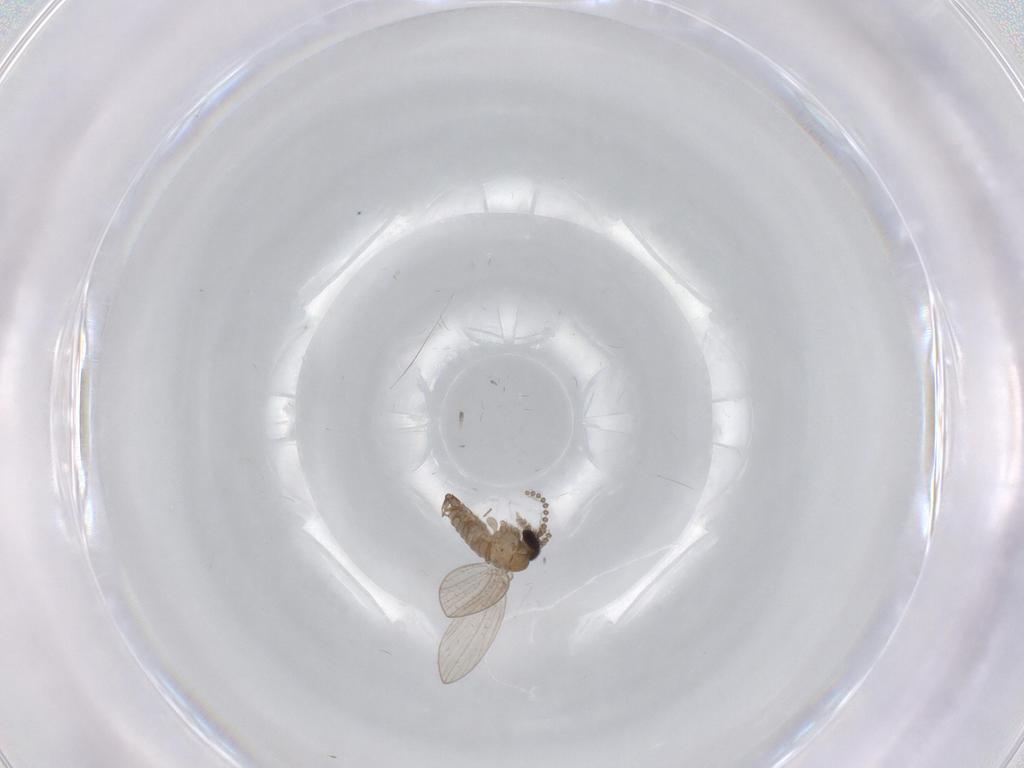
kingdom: Animalia
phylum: Arthropoda
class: Insecta
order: Diptera
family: Psychodidae
